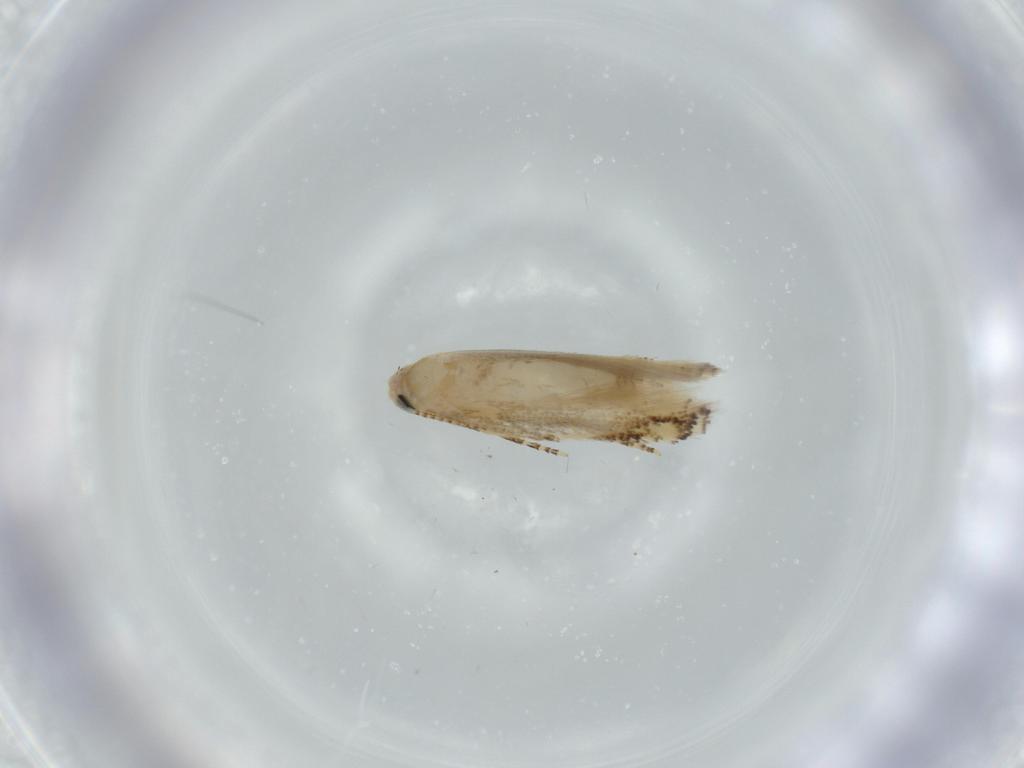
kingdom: Animalia
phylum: Arthropoda
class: Insecta
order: Lepidoptera
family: Bucculatricidae
